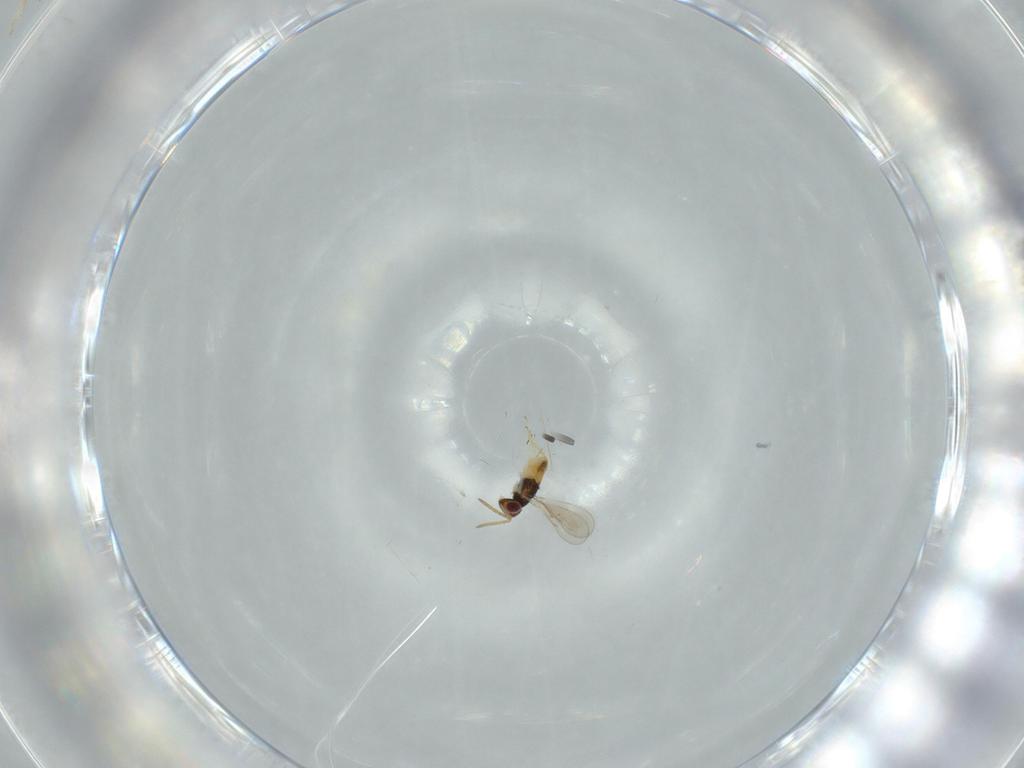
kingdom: Animalia
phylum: Arthropoda
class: Insecta
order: Hymenoptera
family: Aphelinidae
